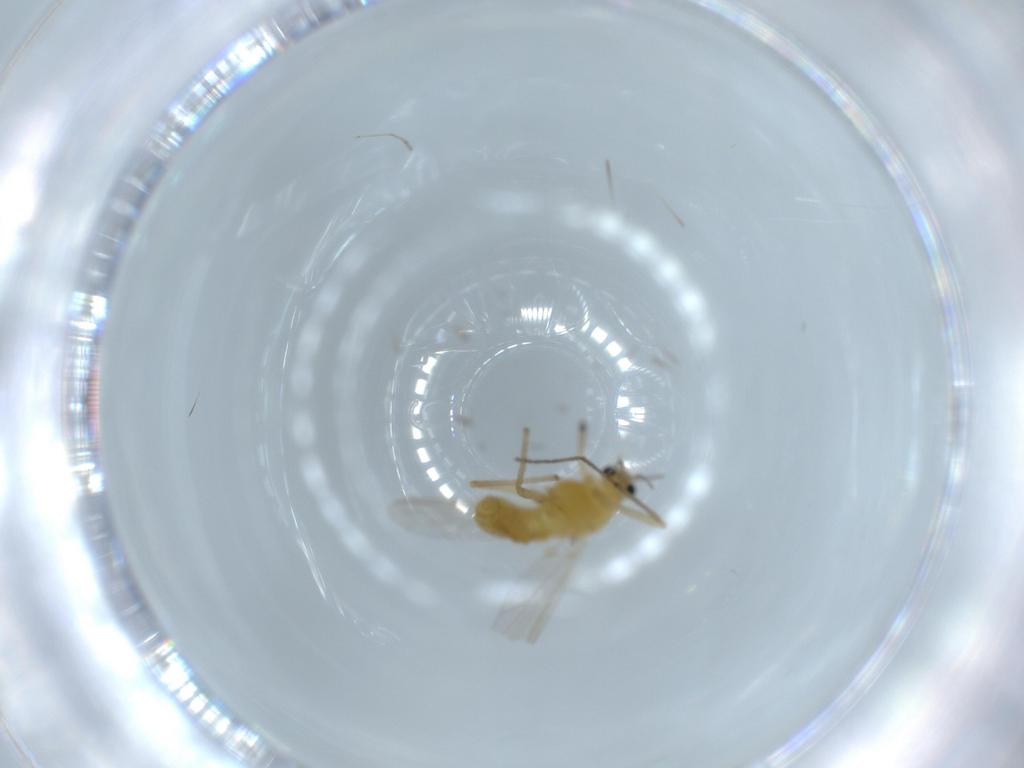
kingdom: Animalia
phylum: Arthropoda
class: Insecta
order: Diptera
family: Chironomidae
